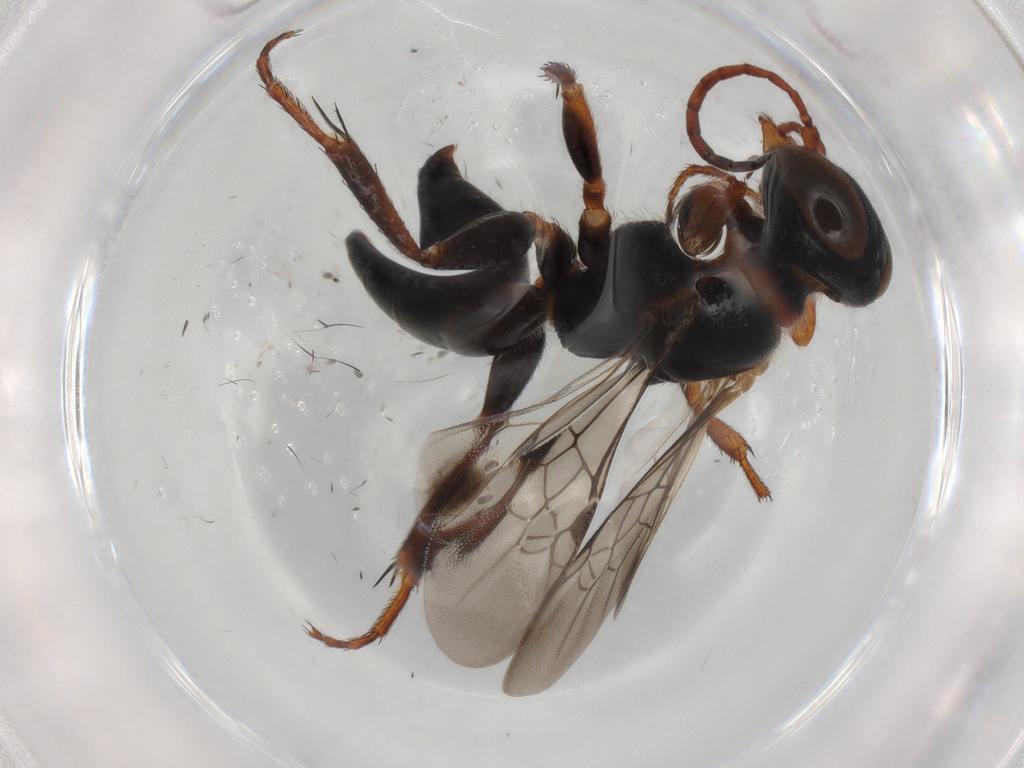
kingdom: Animalia
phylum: Arthropoda
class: Insecta
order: Hymenoptera
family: Crabronidae
